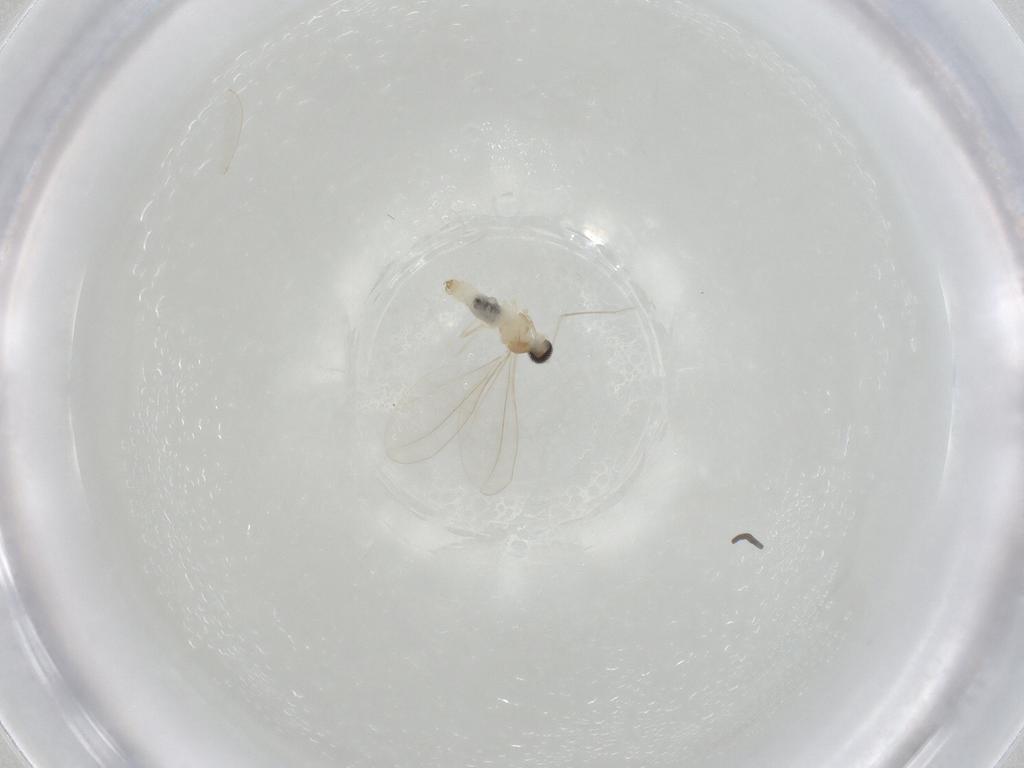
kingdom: Animalia
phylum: Arthropoda
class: Insecta
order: Diptera
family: Ceratopogonidae
